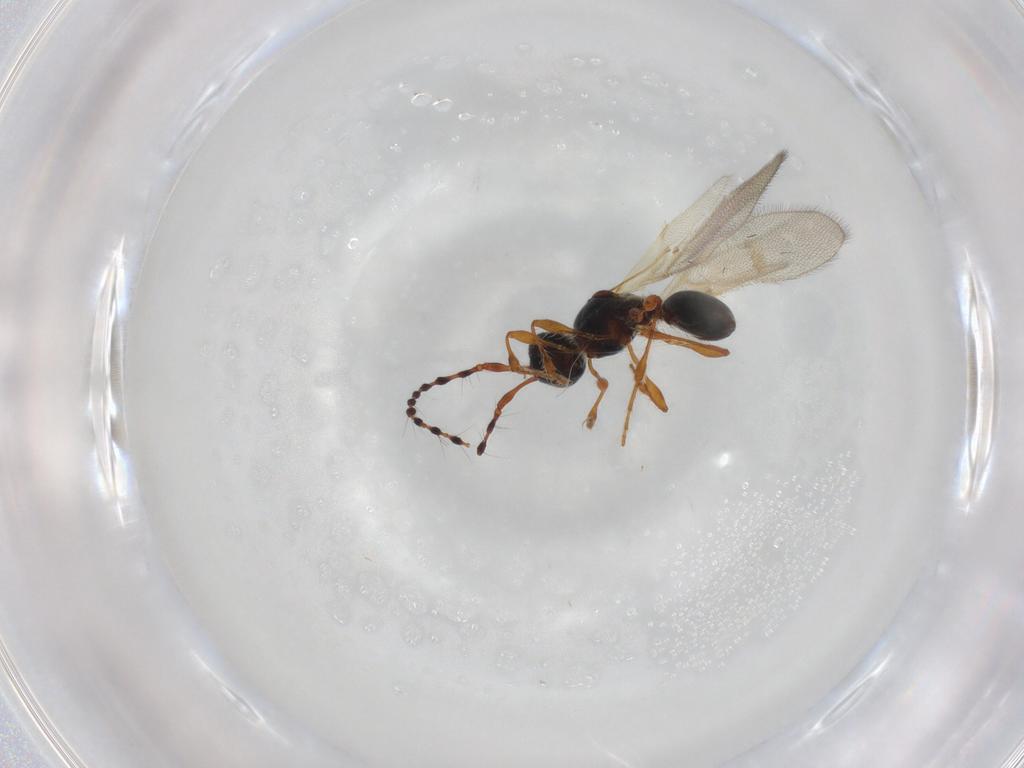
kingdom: Animalia
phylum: Arthropoda
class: Insecta
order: Hymenoptera
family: Diapriidae
